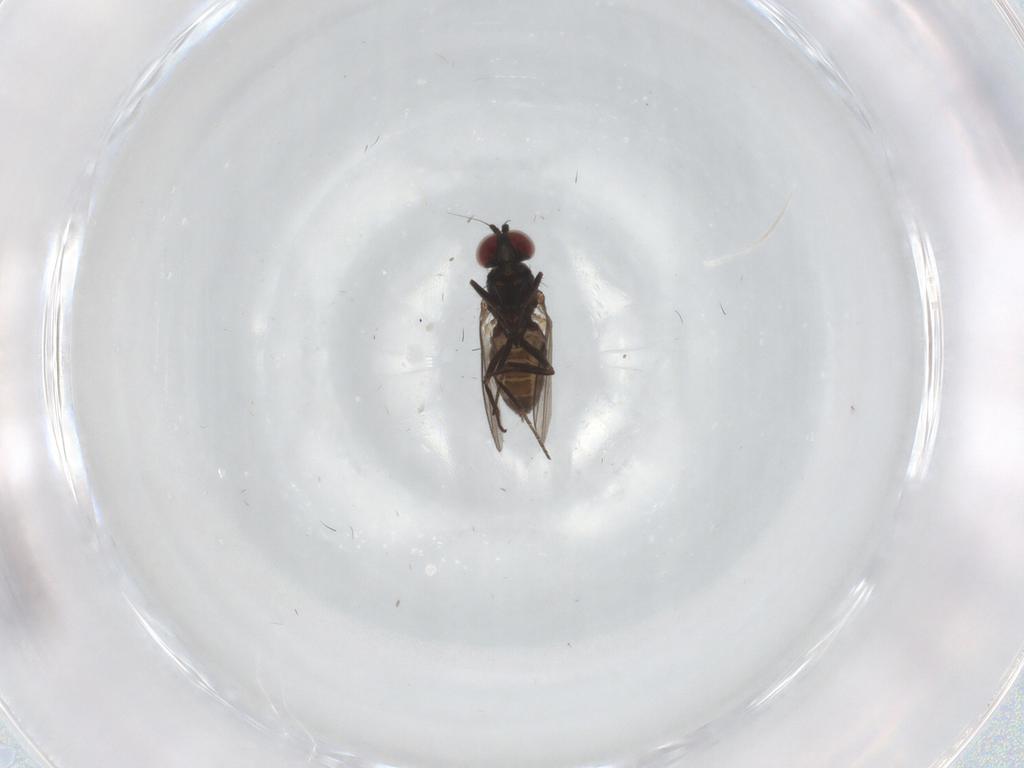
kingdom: Animalia
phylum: Arthropoda
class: Insecta
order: Diptera
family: Dolichopodidae
